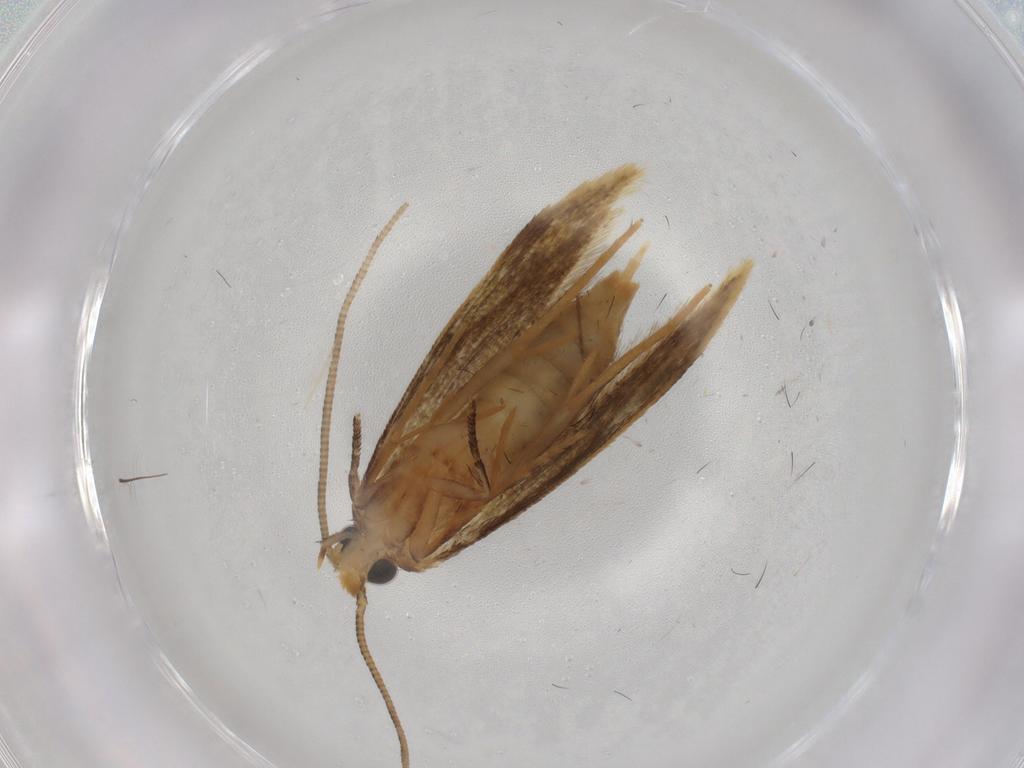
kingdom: Animalia
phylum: Arthropoda
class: Insecta
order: Lepidoptera
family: Tineidae
